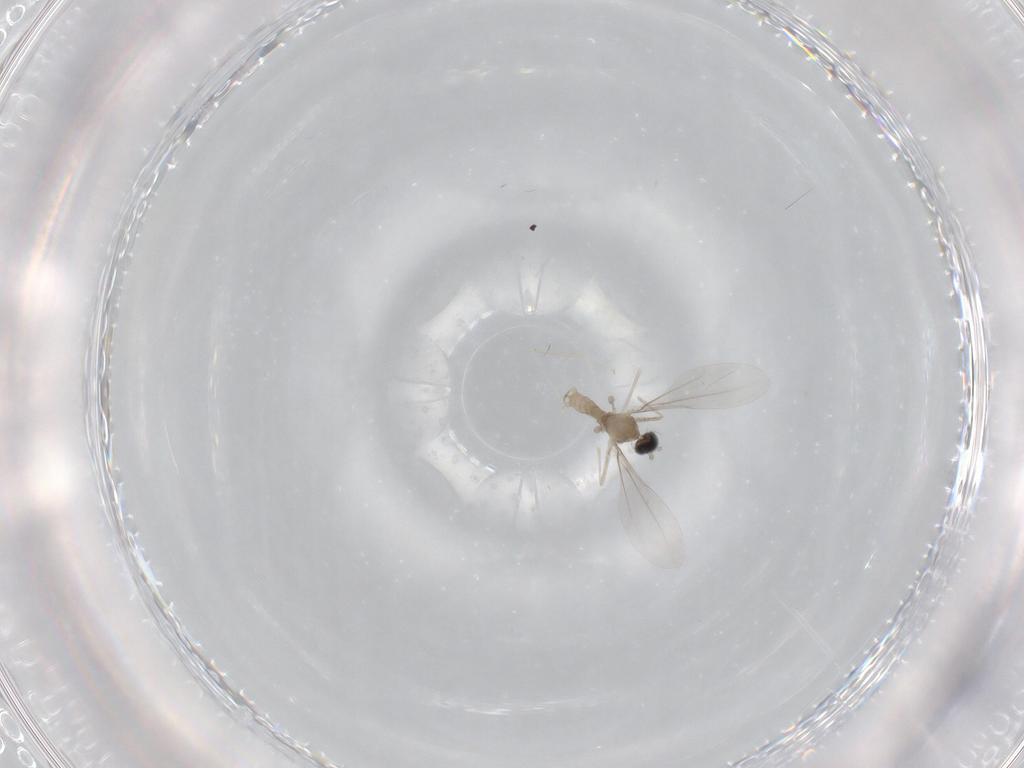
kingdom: Animalia
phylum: Arthropoda
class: Insecta
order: Diptera
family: Cecidomyiidae
